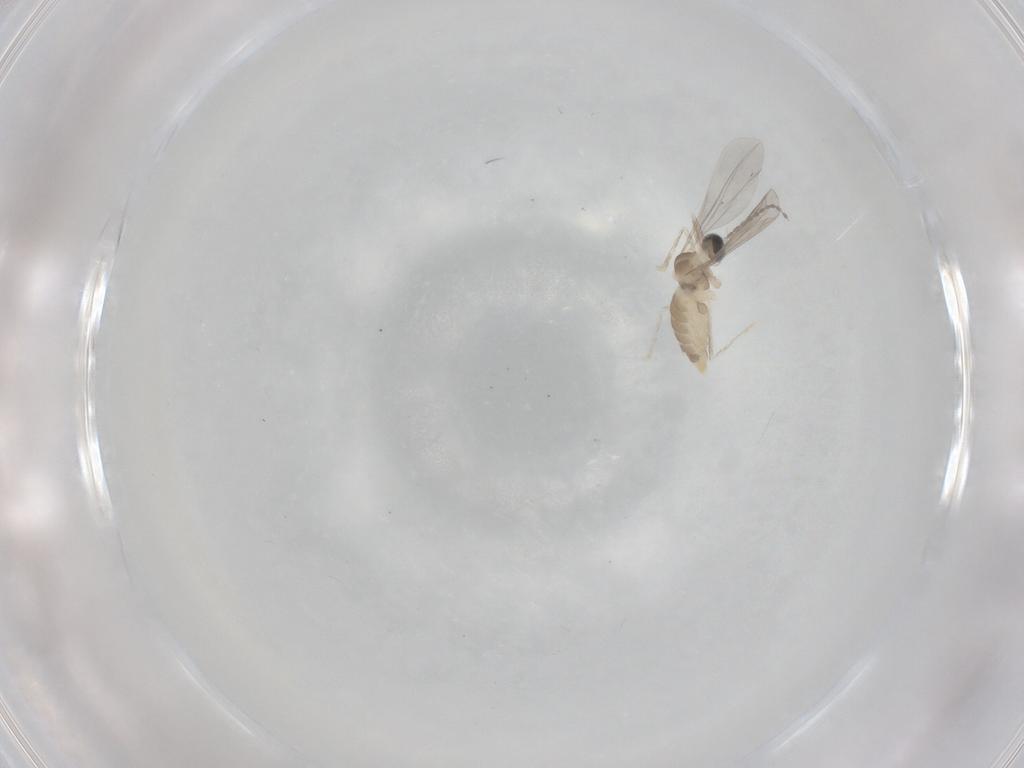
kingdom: Animalia
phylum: Arthropoda
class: Insecta
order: Diptera
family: Cecidomyiidae
